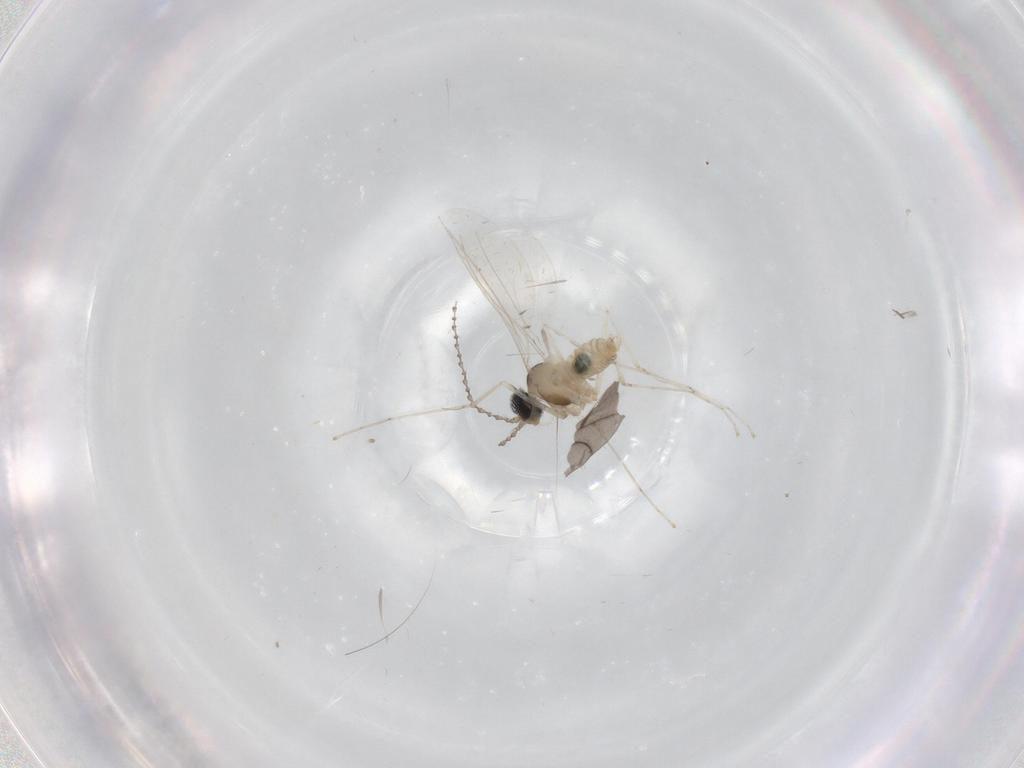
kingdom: Animalia
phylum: Arthropoda
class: Insecta
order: Diptera
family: Cecidomyiidae
